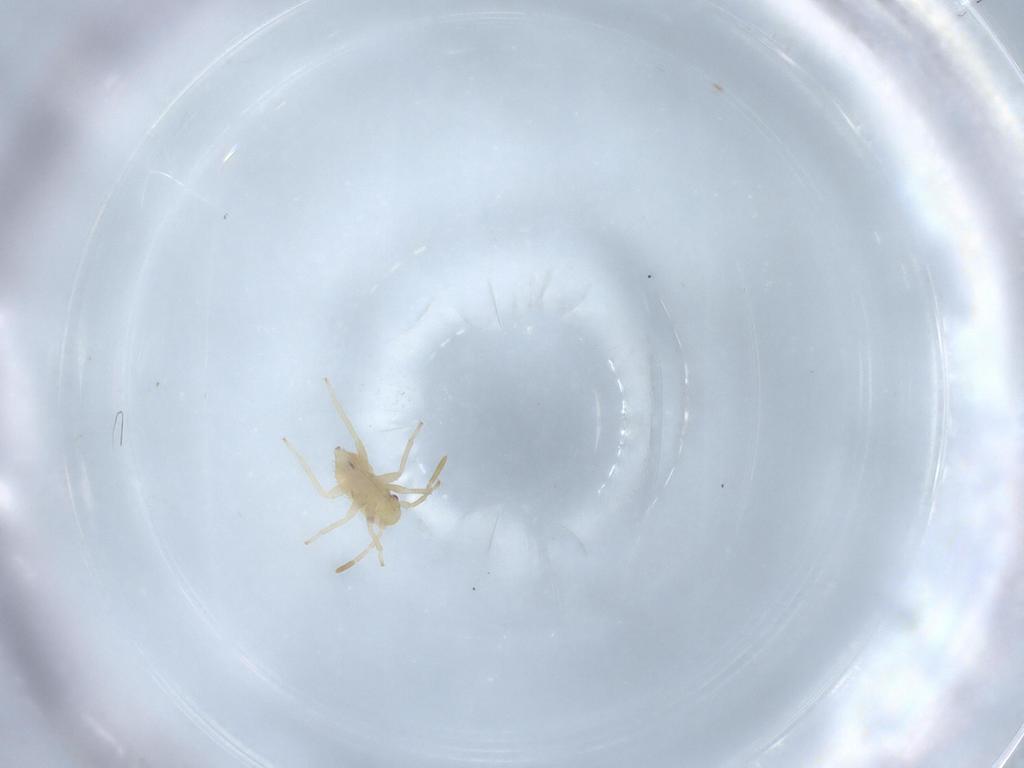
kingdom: Animalia
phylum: Arthropoda
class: Insecta
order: Hemiptera
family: Miridae
